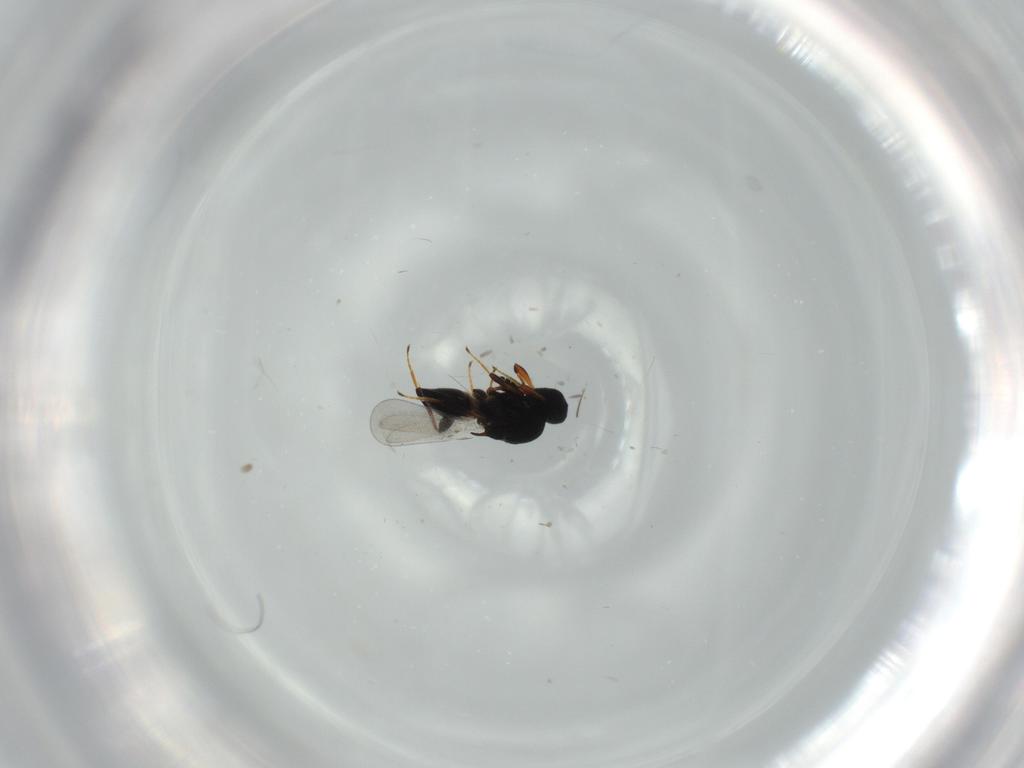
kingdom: Animalia
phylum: Arthropoda
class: Insecta
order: Hymenoptera
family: Platygastridae
